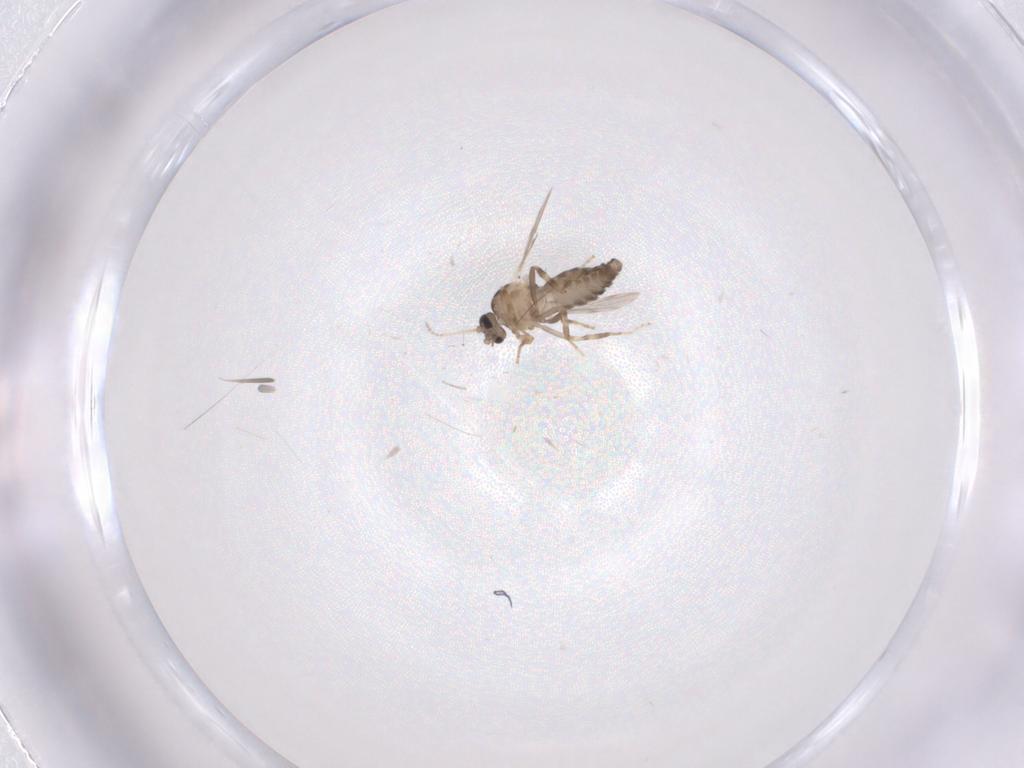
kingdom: Animalia
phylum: Arthropoda
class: Insecta
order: Diptera
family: Ceratopogonidae
